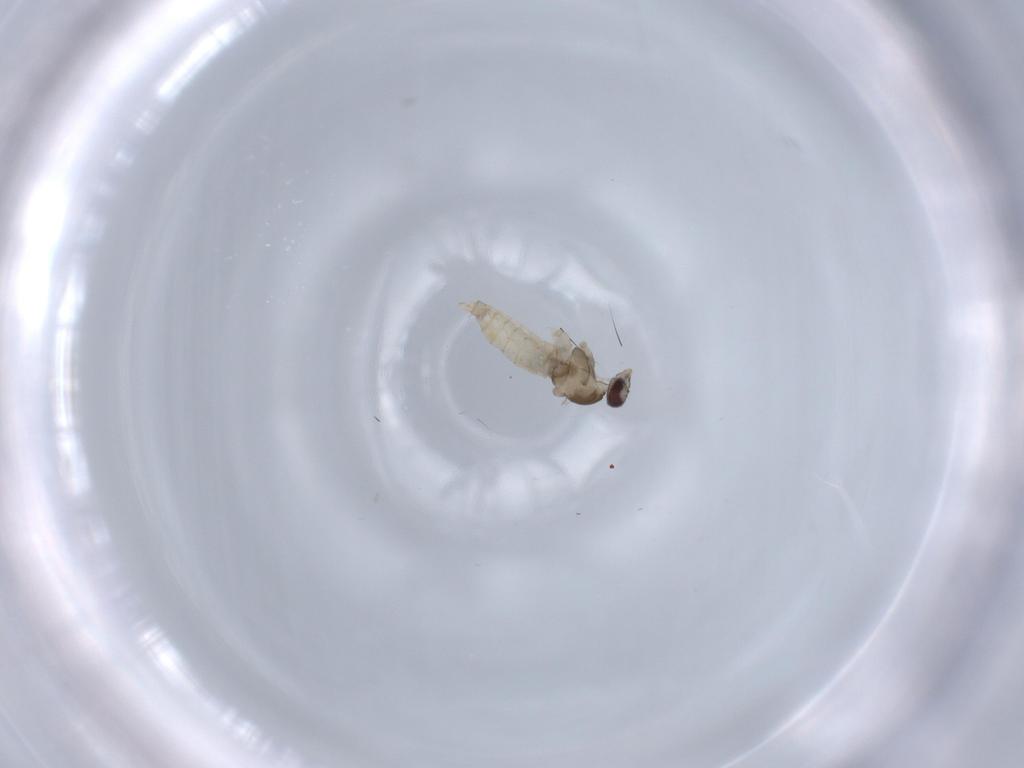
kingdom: Animalia
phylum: Arthropoda
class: Insecta
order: Diptera
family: Cecidomyiidae
